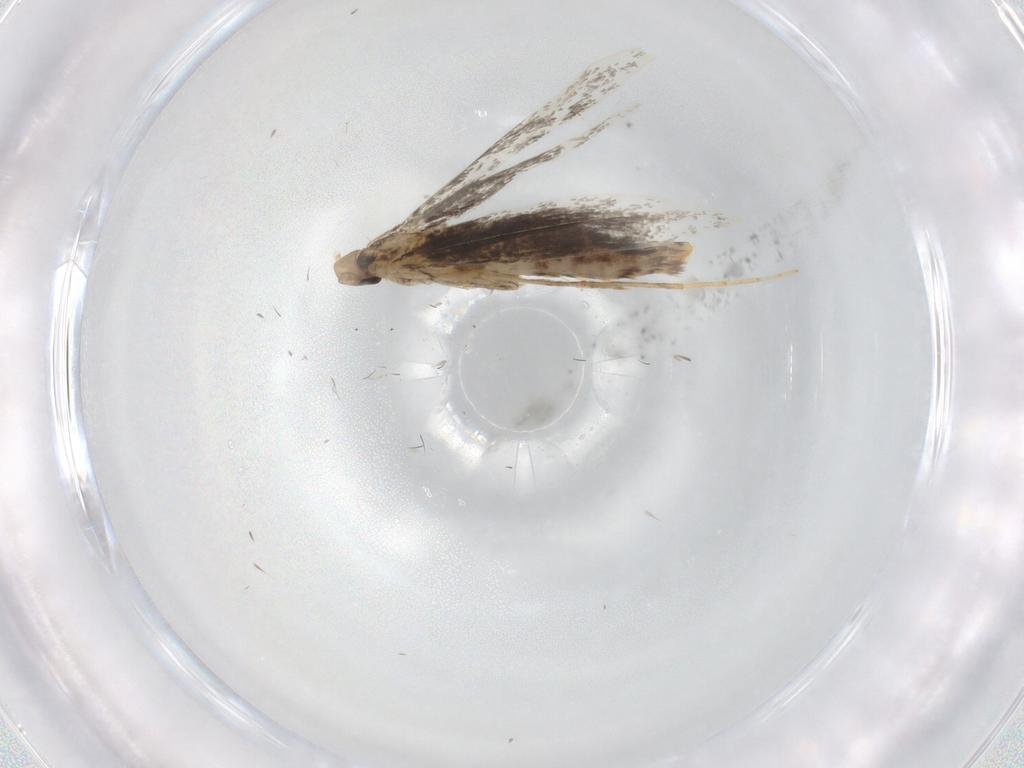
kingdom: Animalia
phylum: Arthropoda
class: Insecta
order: Lepidoptera
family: Gracillariidae
